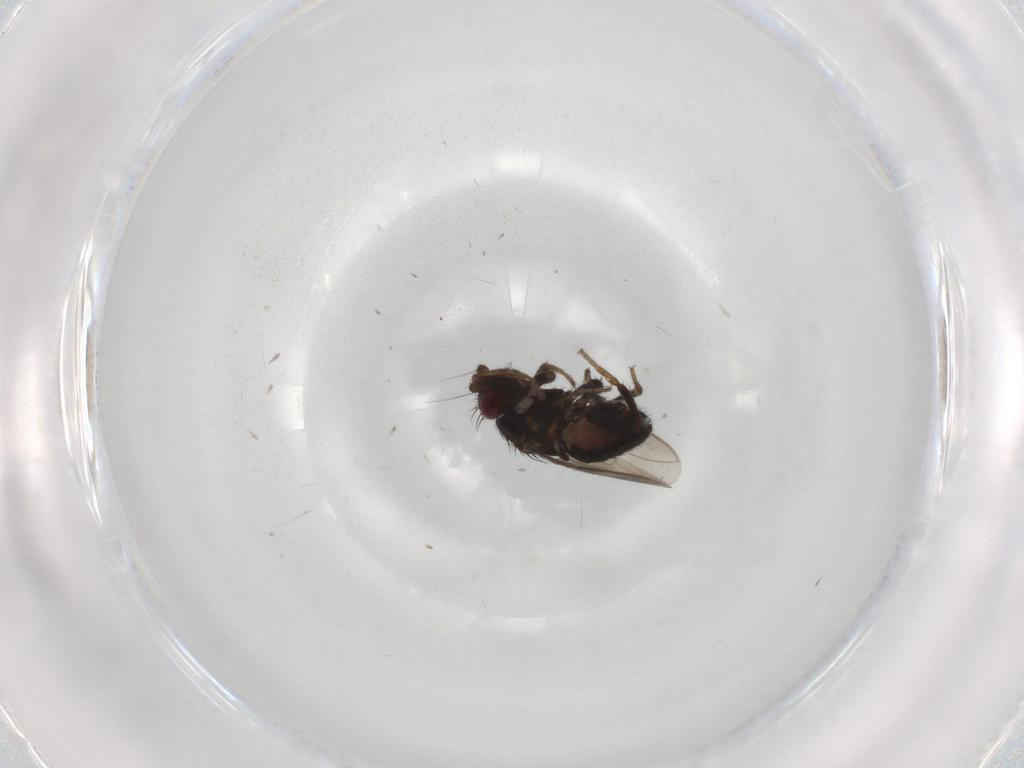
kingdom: Animalia
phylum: Arthropoda
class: Insecta
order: Diptera
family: Sphaeroceridae
